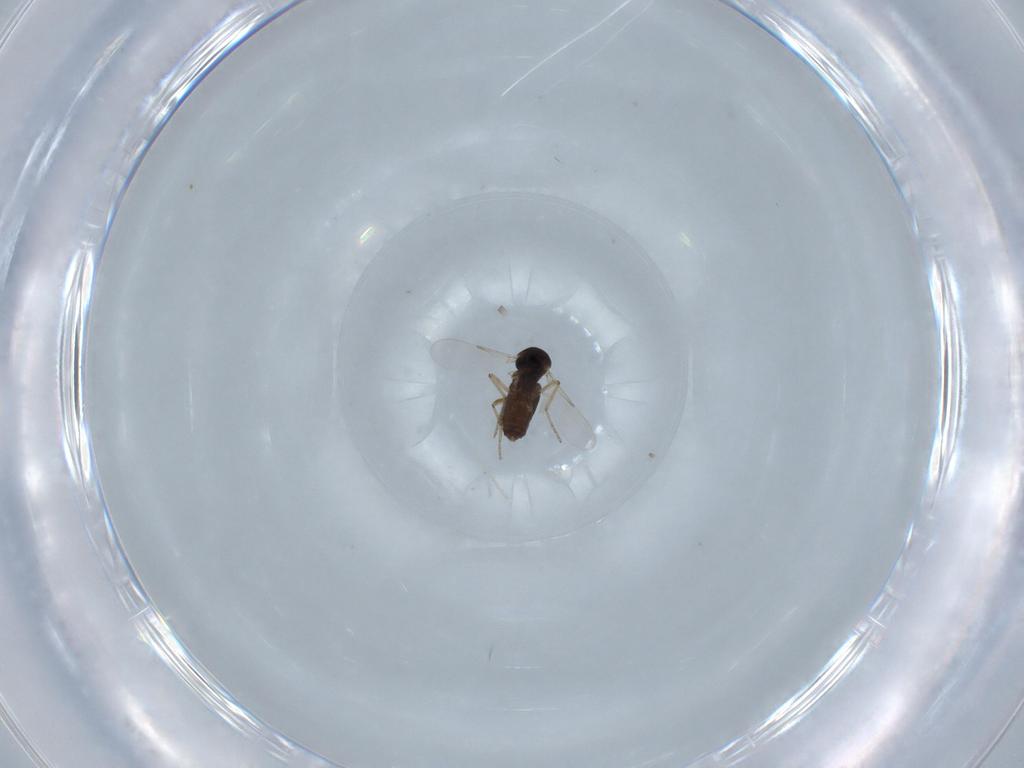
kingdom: Animalia
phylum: Arthropoda
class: Insecta
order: Diptera
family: Ceratopogonidae
